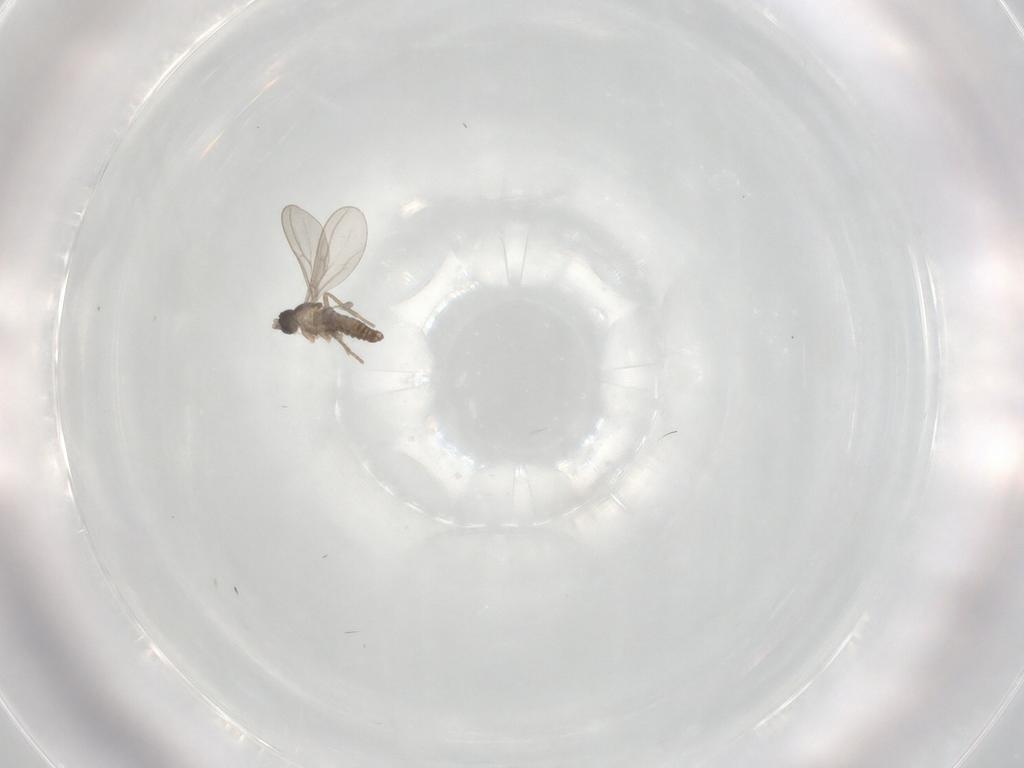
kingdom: Animalia
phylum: Arthropoda
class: Insecta
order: Diptera
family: Cecidomyiidae
